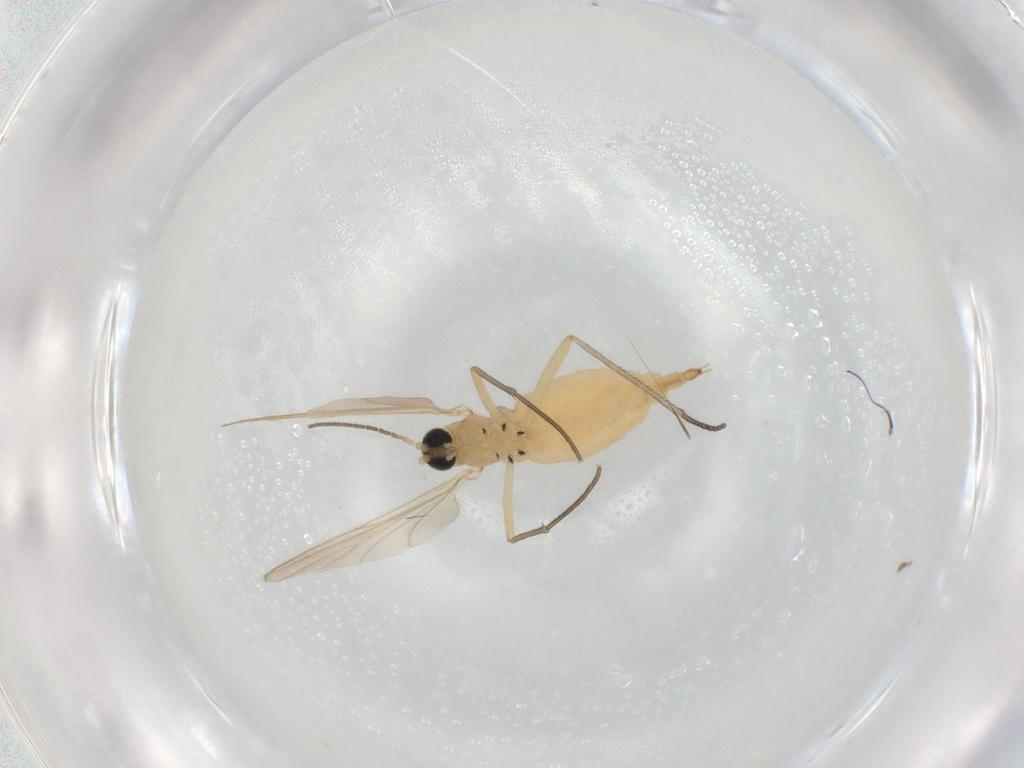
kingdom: Animalia
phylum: Arthropoda
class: Insecta
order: Diptera
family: Sciaridae
